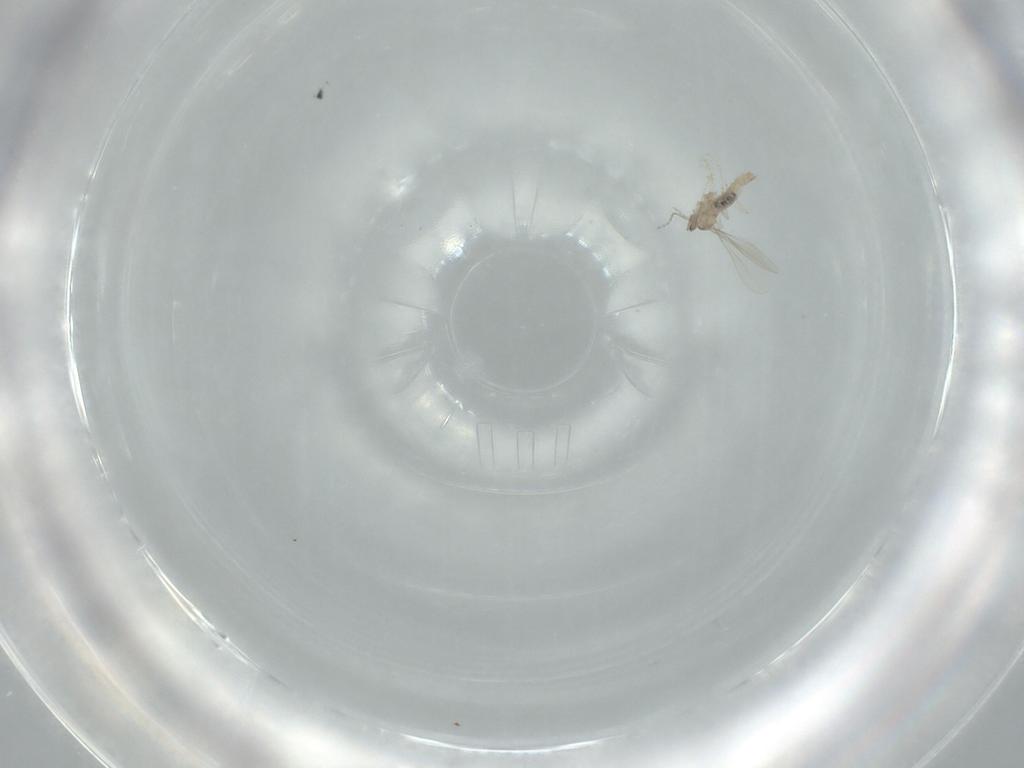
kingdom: Animalia
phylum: Arthropoda
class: Insecta
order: Diptera
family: Cecidomyiidae
